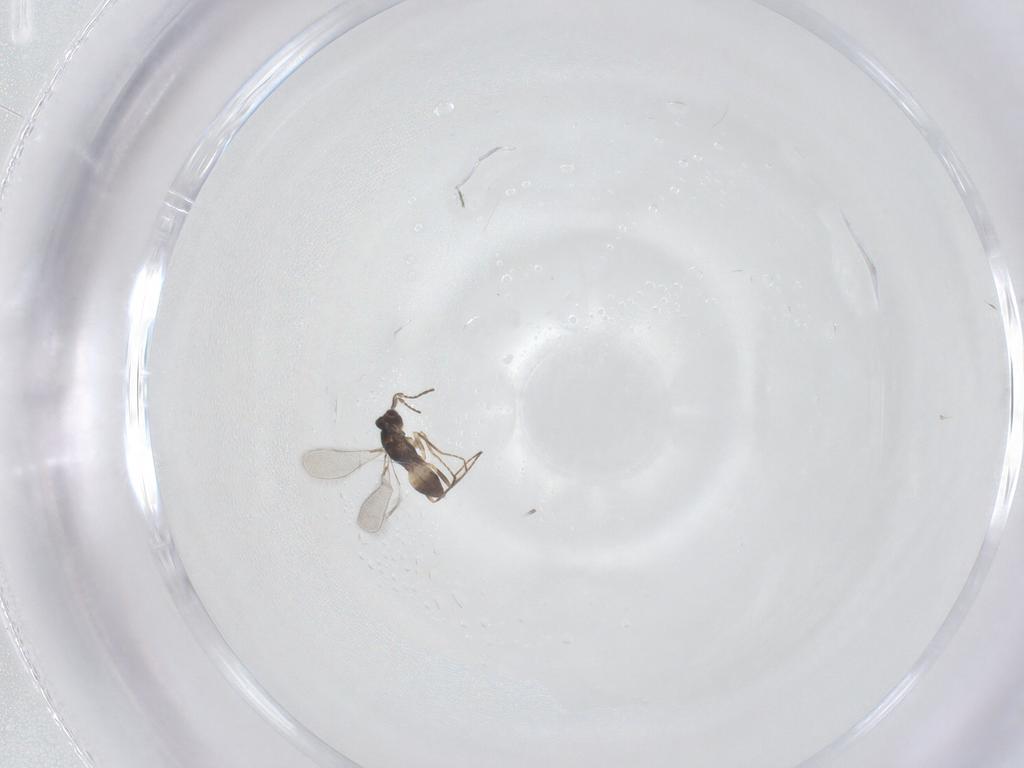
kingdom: Animalia
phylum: Arthropoda
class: Insecta
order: Hymenoptera
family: Mymaridae
